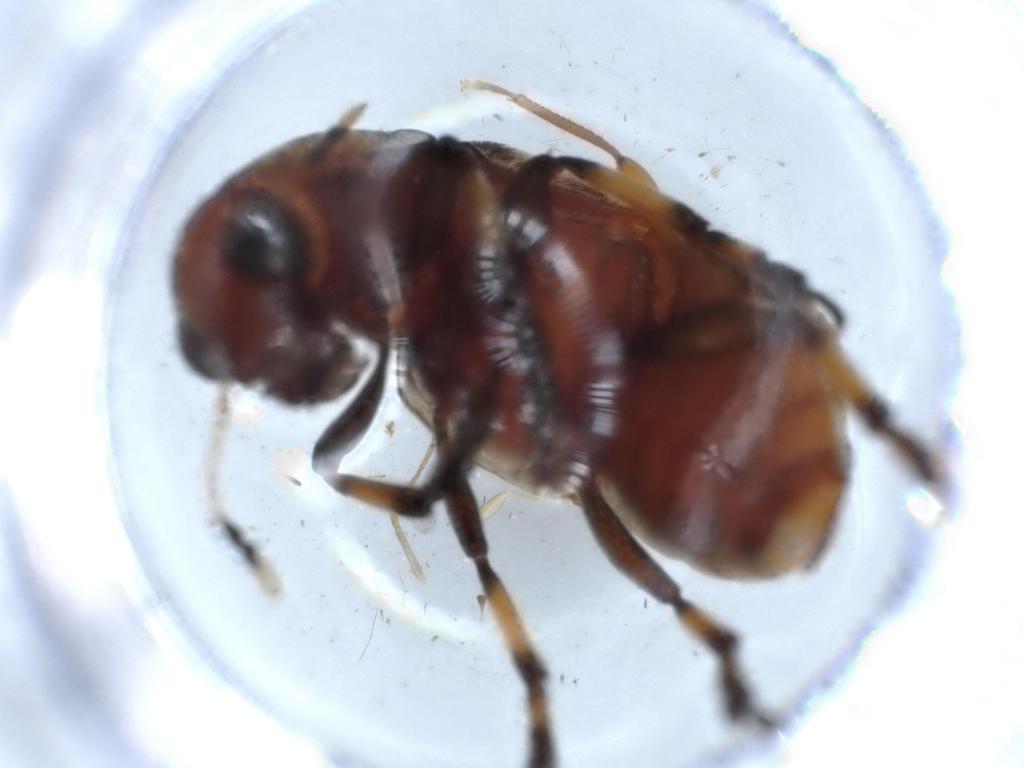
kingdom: Animalia
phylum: Arthropoda
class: Insecta
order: Coleoptera
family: Ptilodactylidae
